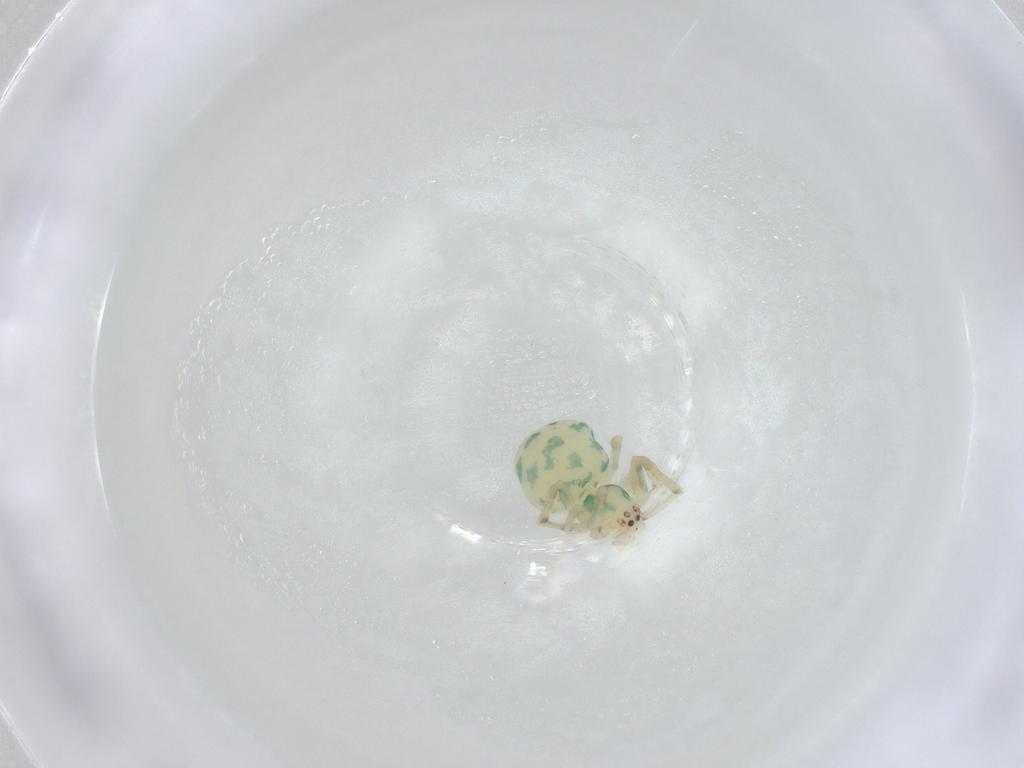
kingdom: Animalia
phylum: Arthropoda
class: Arachnida
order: Araneae
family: Theridiidae
